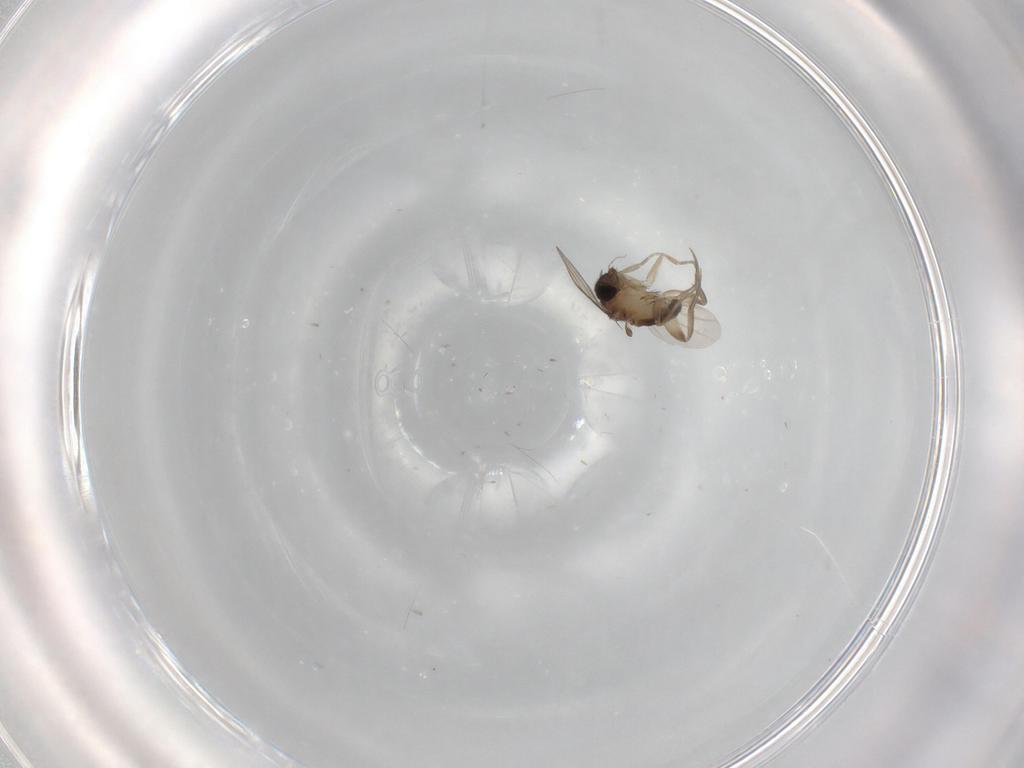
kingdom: Animalia
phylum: Arthropoda
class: Insecta
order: Diptera
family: Phoridae
